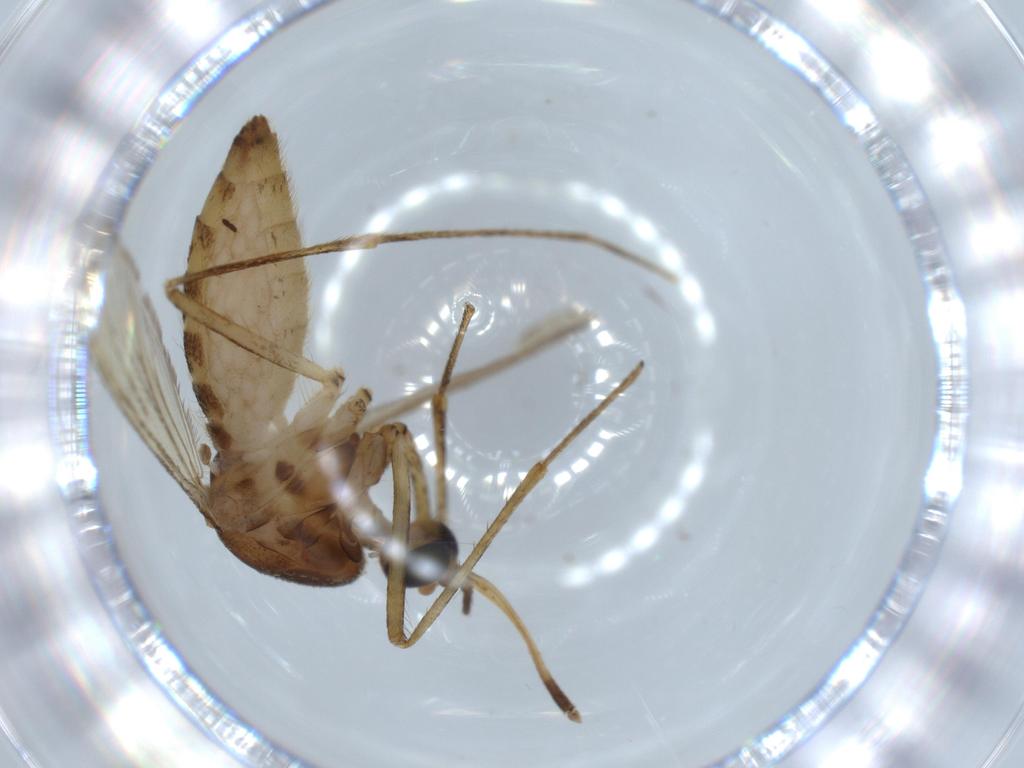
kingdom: Animalia
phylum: Arthropoda
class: Insecta
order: Diptera
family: Culicidae
